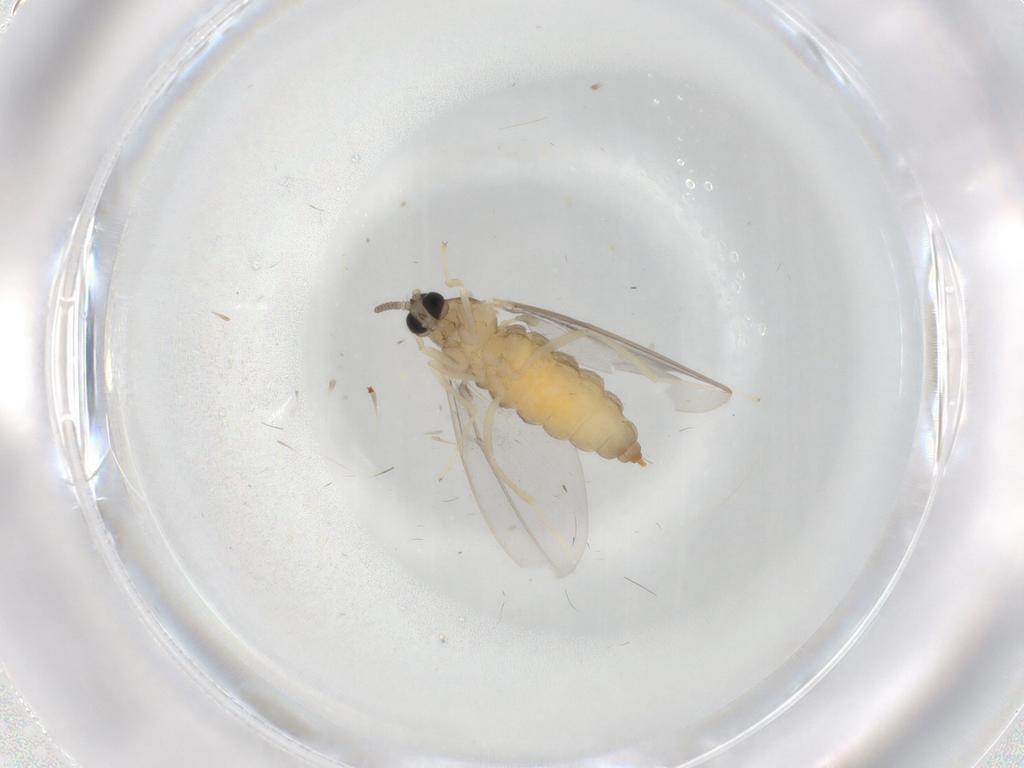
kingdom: Animalia
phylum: Arthropoda
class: Insecta
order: Diptera
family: Cecidomyiidae
